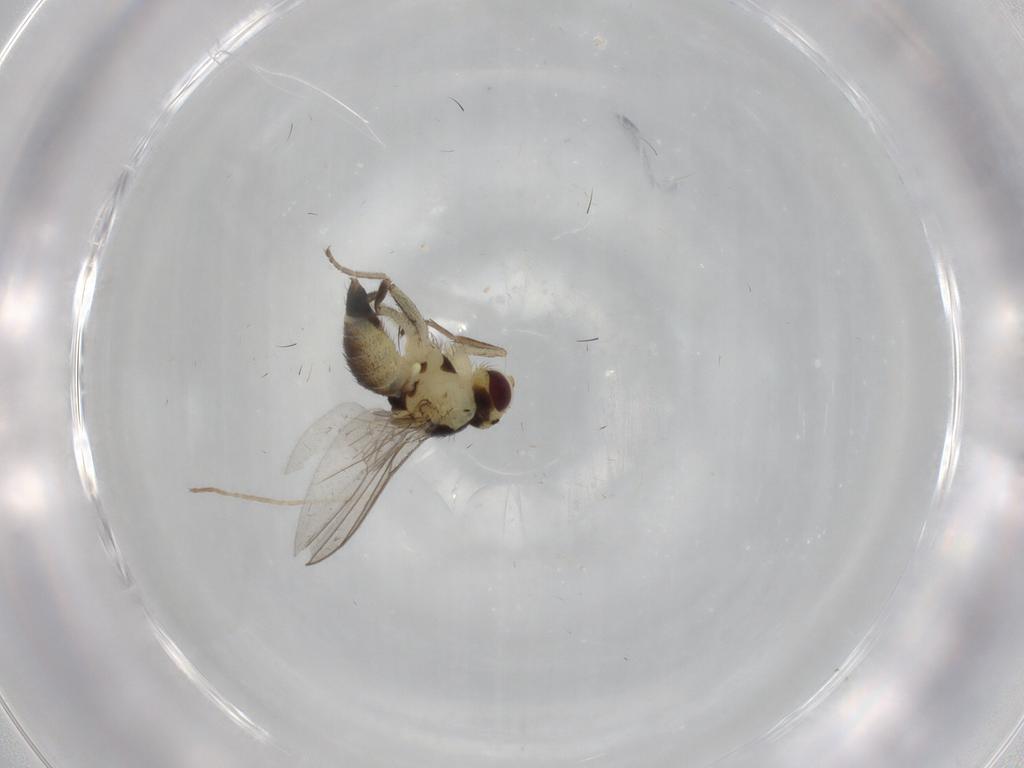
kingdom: Animalia
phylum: Arthropoda
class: Insecta
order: Diptera
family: Agromyzidae
